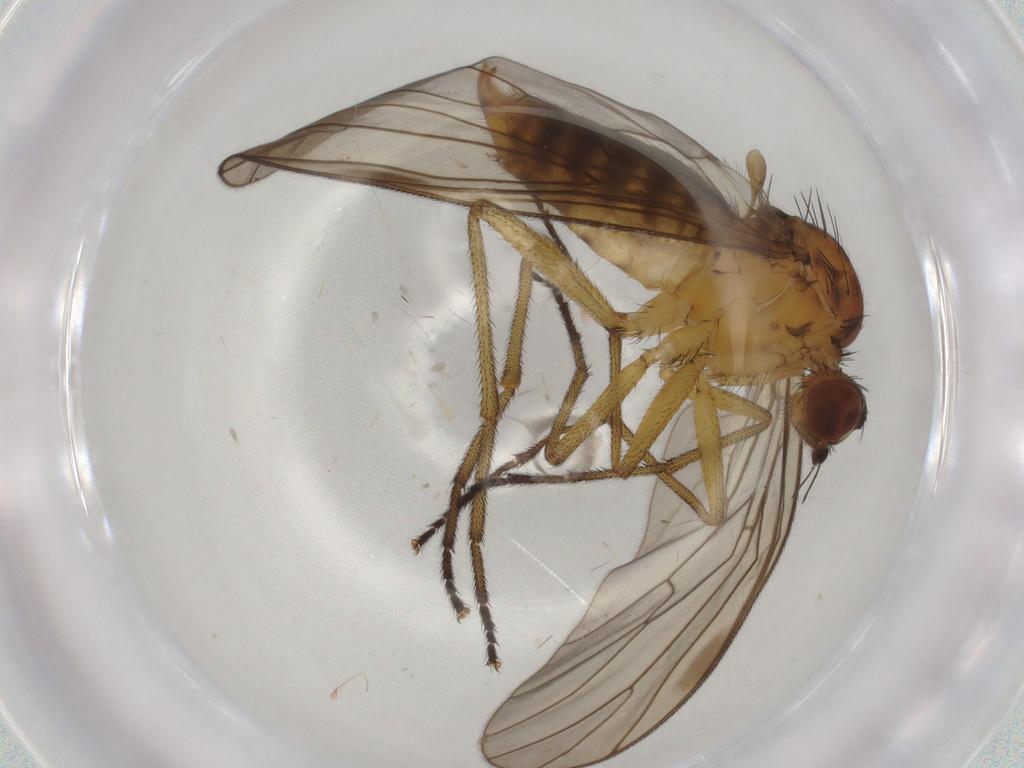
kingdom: Animalia
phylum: Arthropoda
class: Insecta
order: Diptera
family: Brachystomatidae
